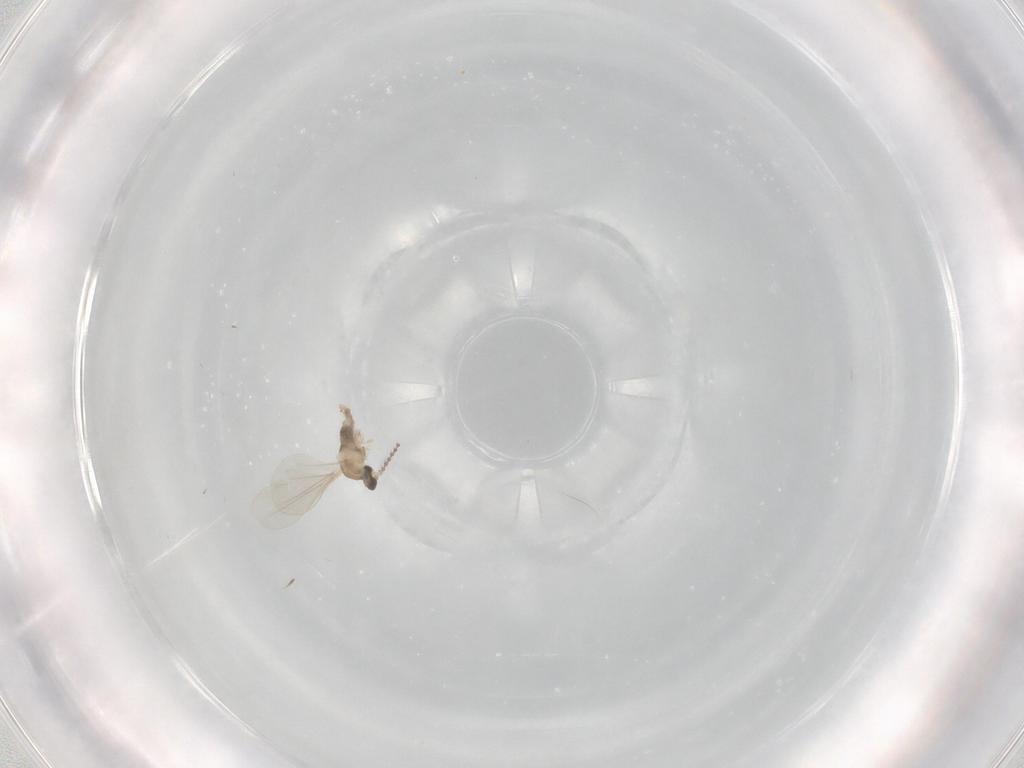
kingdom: Animalia
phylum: Arthropoda
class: Insecta
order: Diptera
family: Cecidomyiidae
